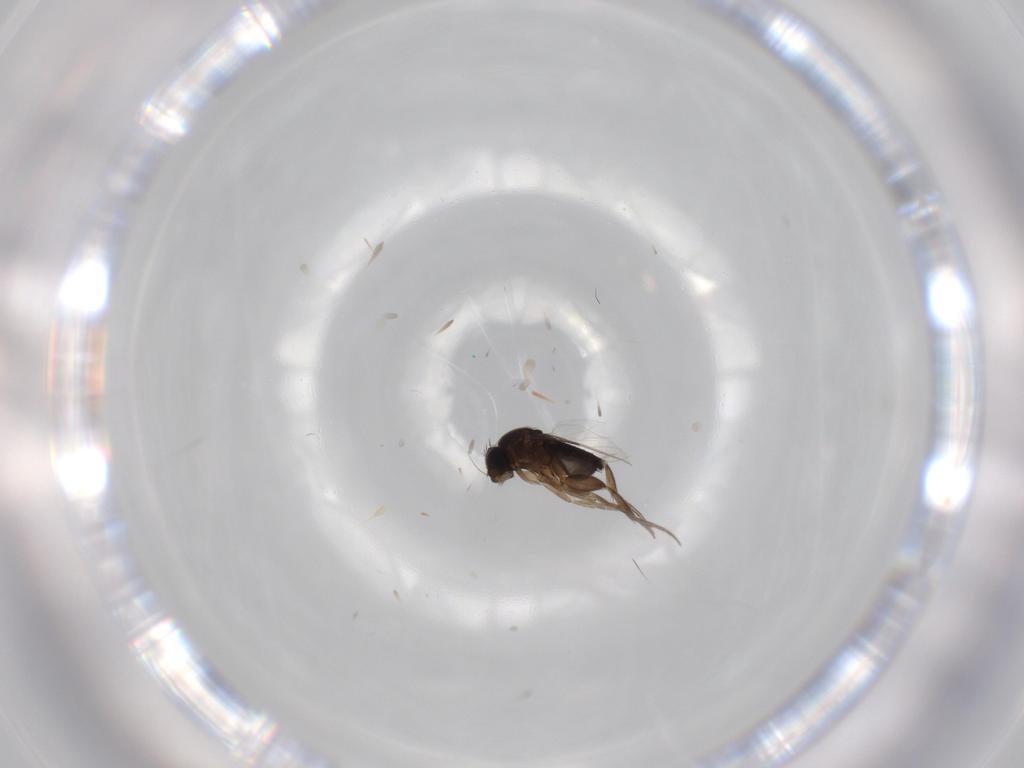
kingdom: Animalia
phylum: Arthropoda
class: Insecta
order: Diptera
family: Phoridae
